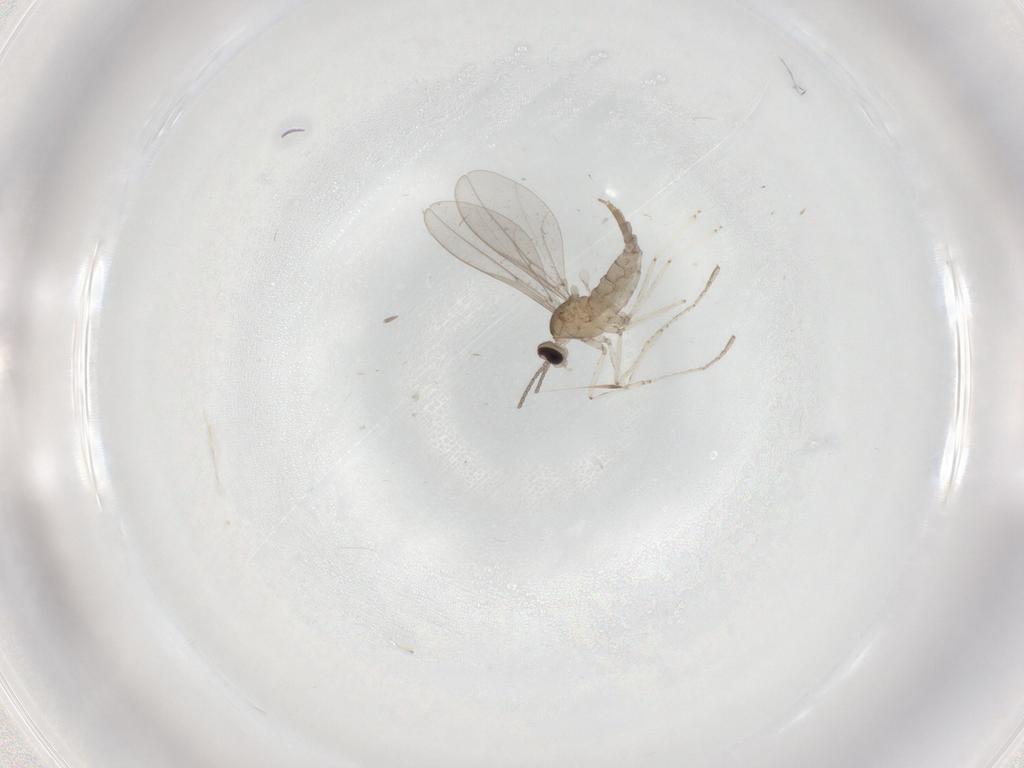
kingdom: Animalia
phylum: Arthropoda
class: Insecta
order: Diptera
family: Cecidomyiidae
